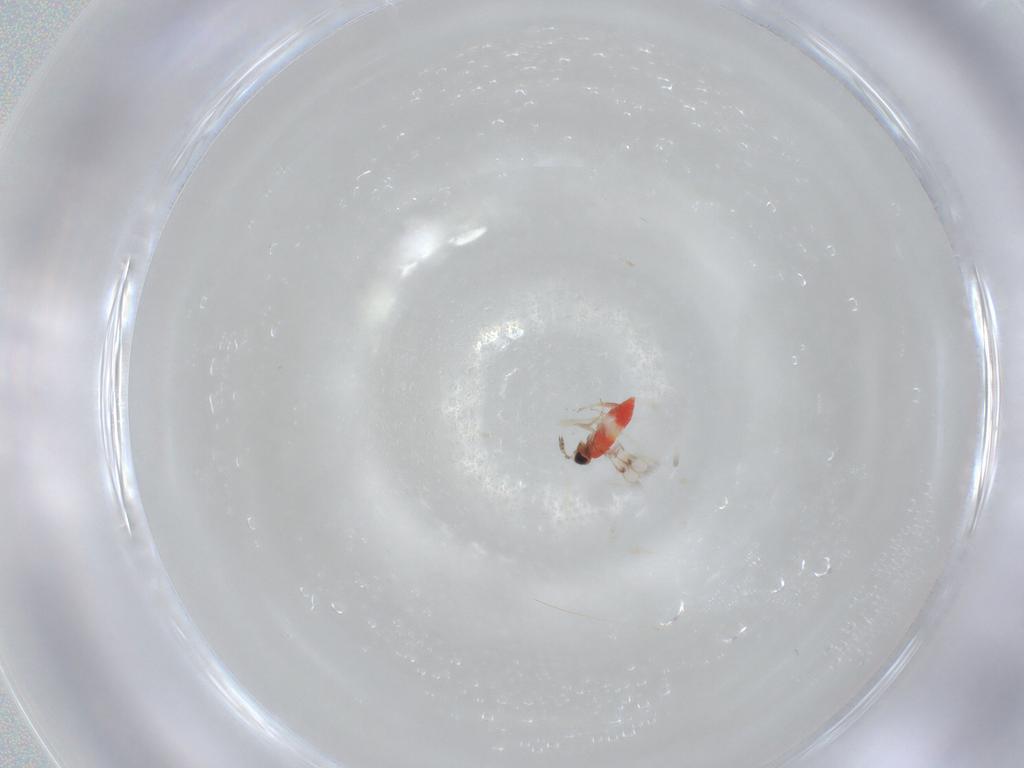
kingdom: Animalia
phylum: Arthropoda
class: Insecta
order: Hymenoptera
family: Trichogrammatidae
